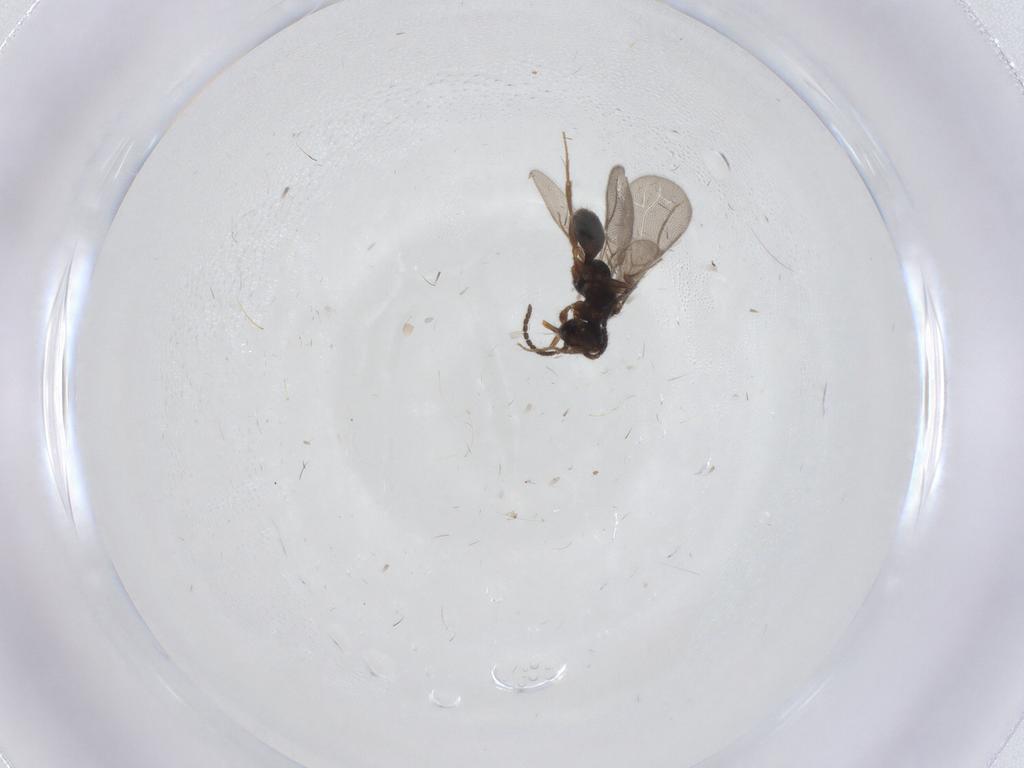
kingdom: Animalia
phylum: Arthropoda
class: Insecta
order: Hymenoptera
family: Bethylidae
